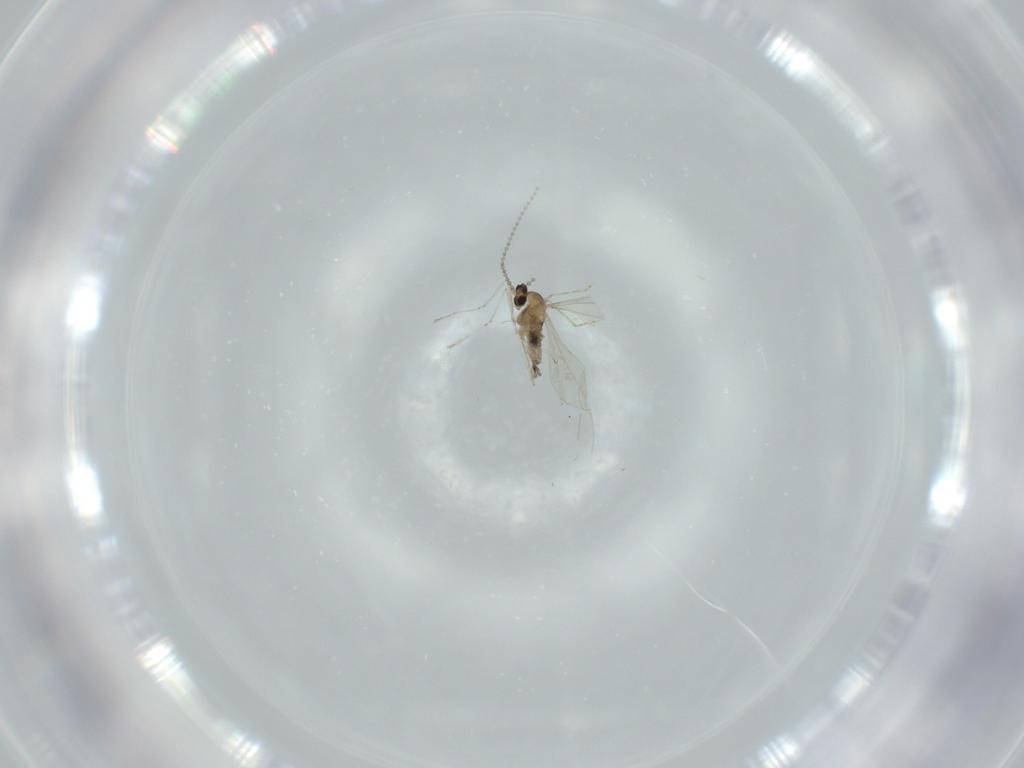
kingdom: Animalia
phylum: Arthropoda
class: Insecta
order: Diptera
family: Cecidomyiidae
